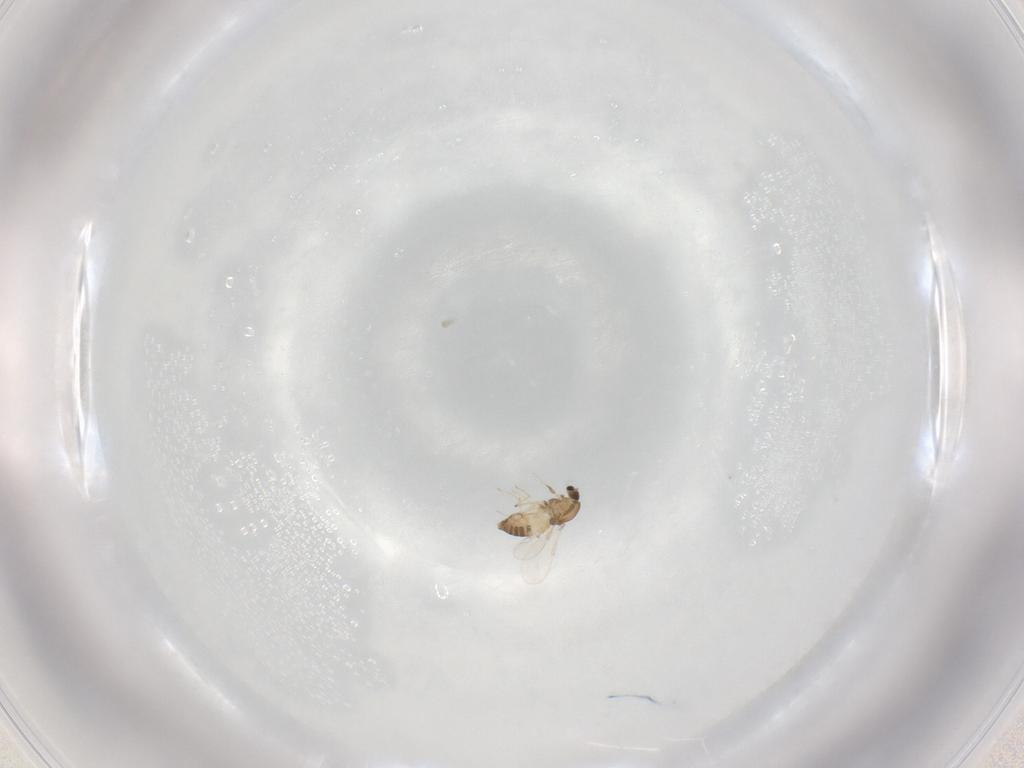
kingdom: Animalia
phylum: Arthropoda
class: Insecta
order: Diptera
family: Chironomidae
